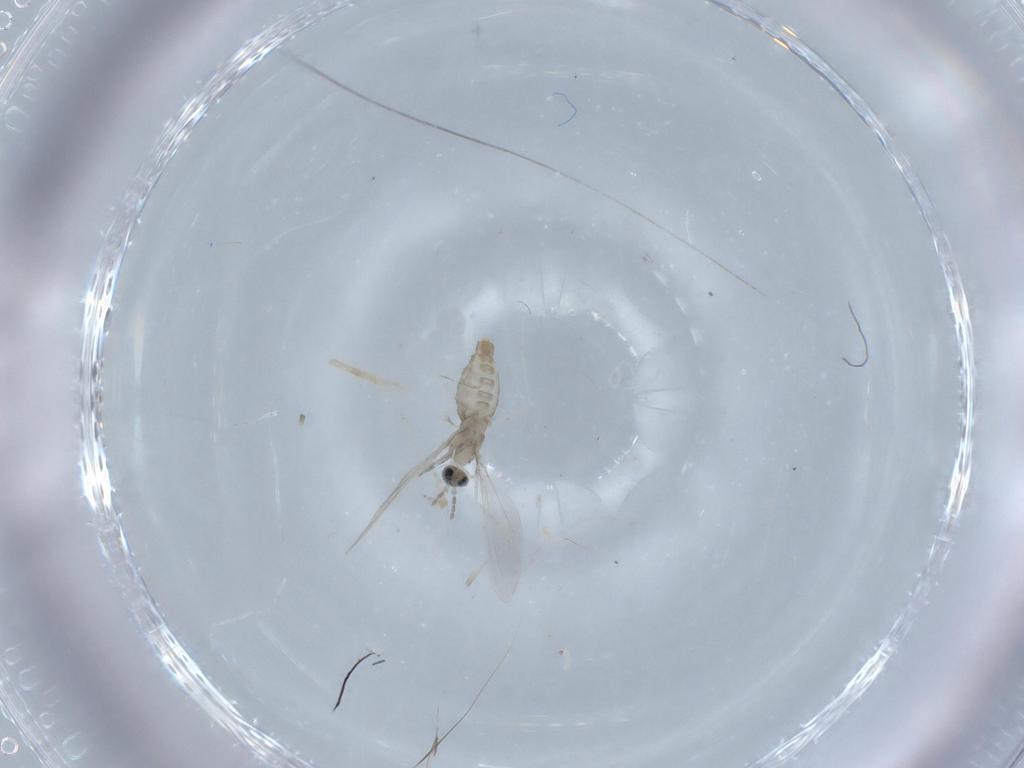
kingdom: Animalia
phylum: Arthropoda
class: Insecta
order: Diptera
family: Drosophilidae
